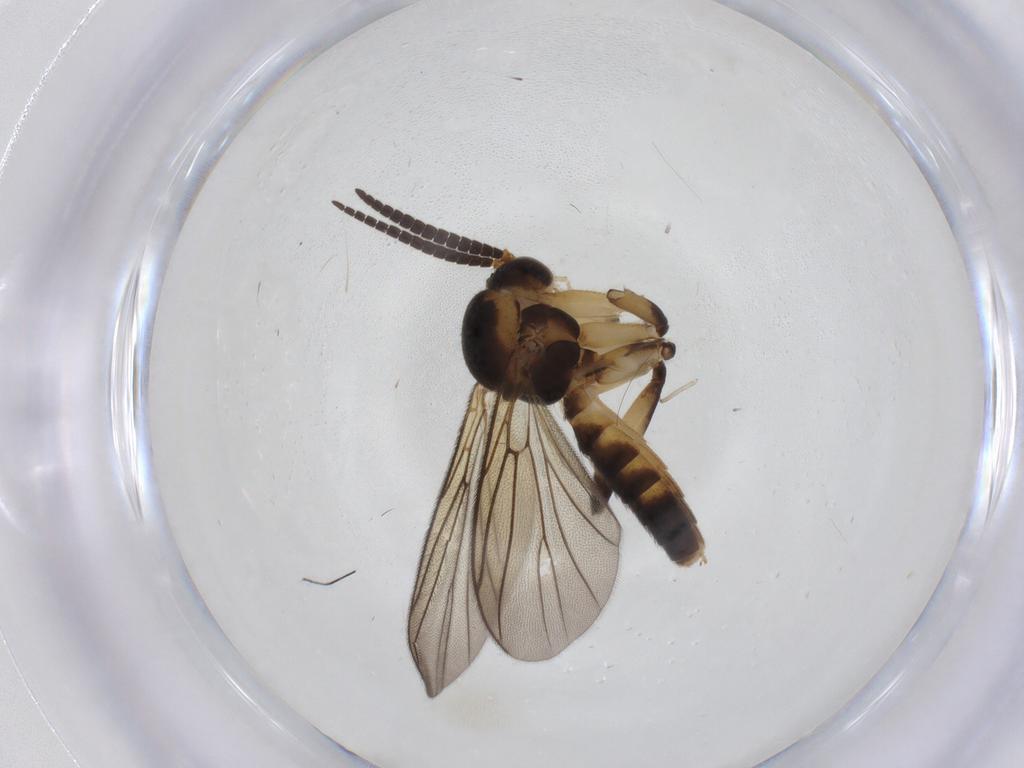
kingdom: Animalia
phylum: Arthropoda
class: Insecta
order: Diptera
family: Mycetophilidae
